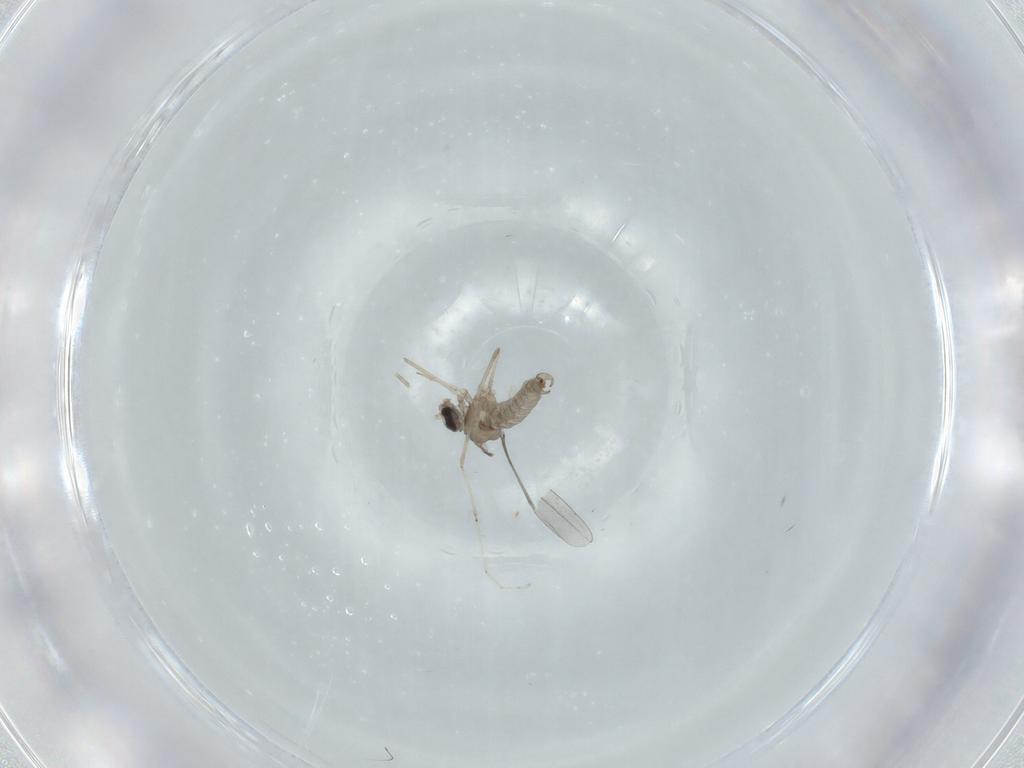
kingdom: Animalia
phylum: Arthropoda
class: Insecta
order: Diptera
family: Cecidomyiidae
